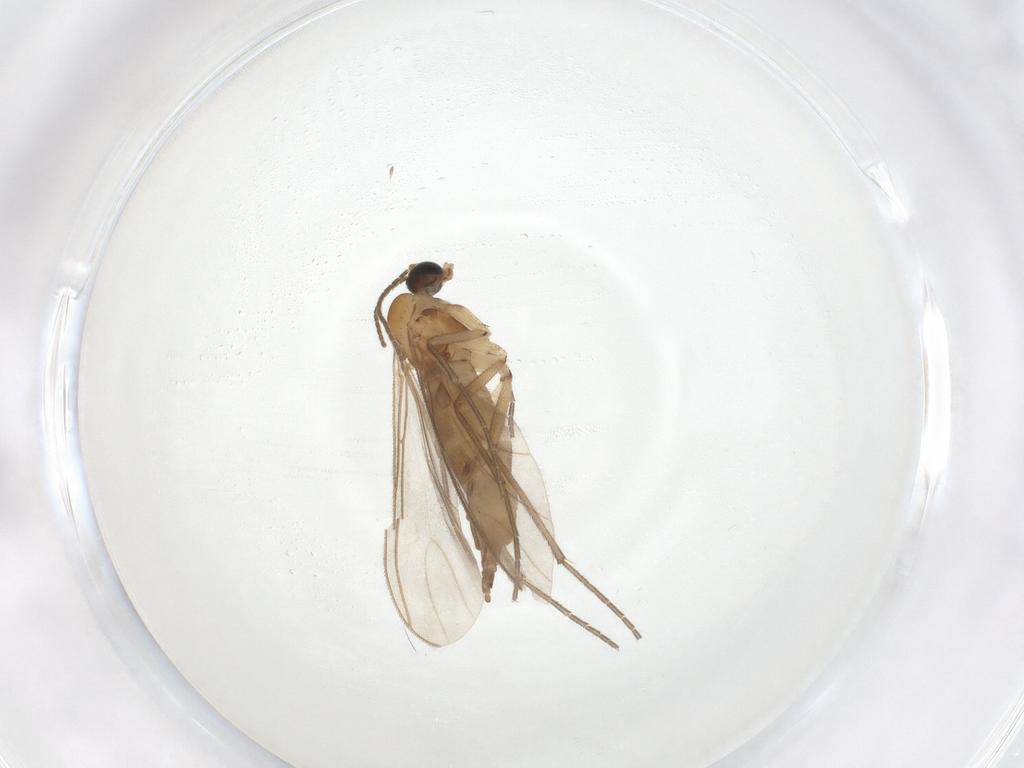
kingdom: Animalia
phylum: Arthropoda
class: Insecta
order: Diptera
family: Sciaridae
